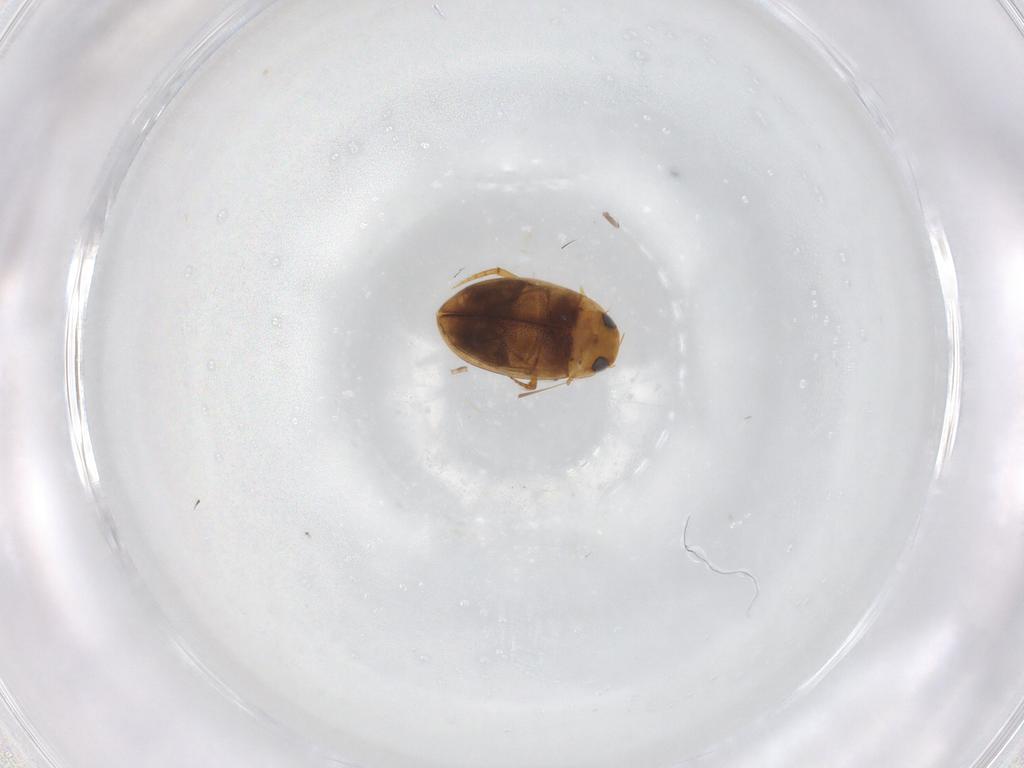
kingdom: Animalia
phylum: Arthropoda
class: Insecta
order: Coleoptera
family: Dytiscidae
